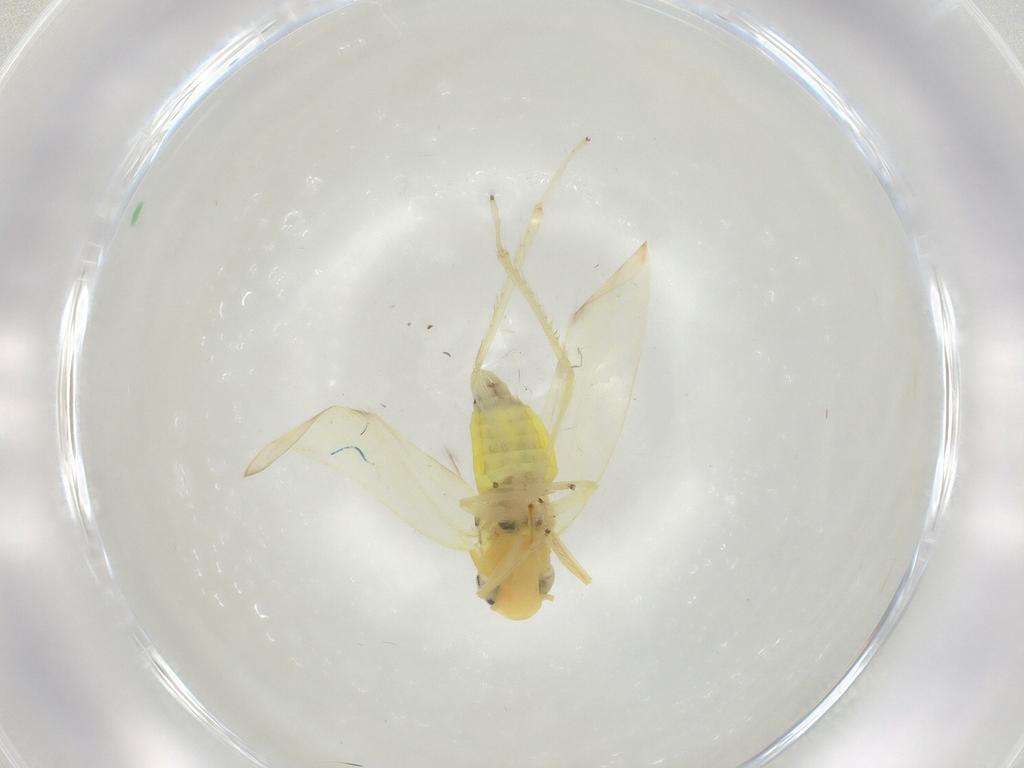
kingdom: Animalia
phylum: Arthropoda
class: Insecta
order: Hemiptera
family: Cicadellidae
